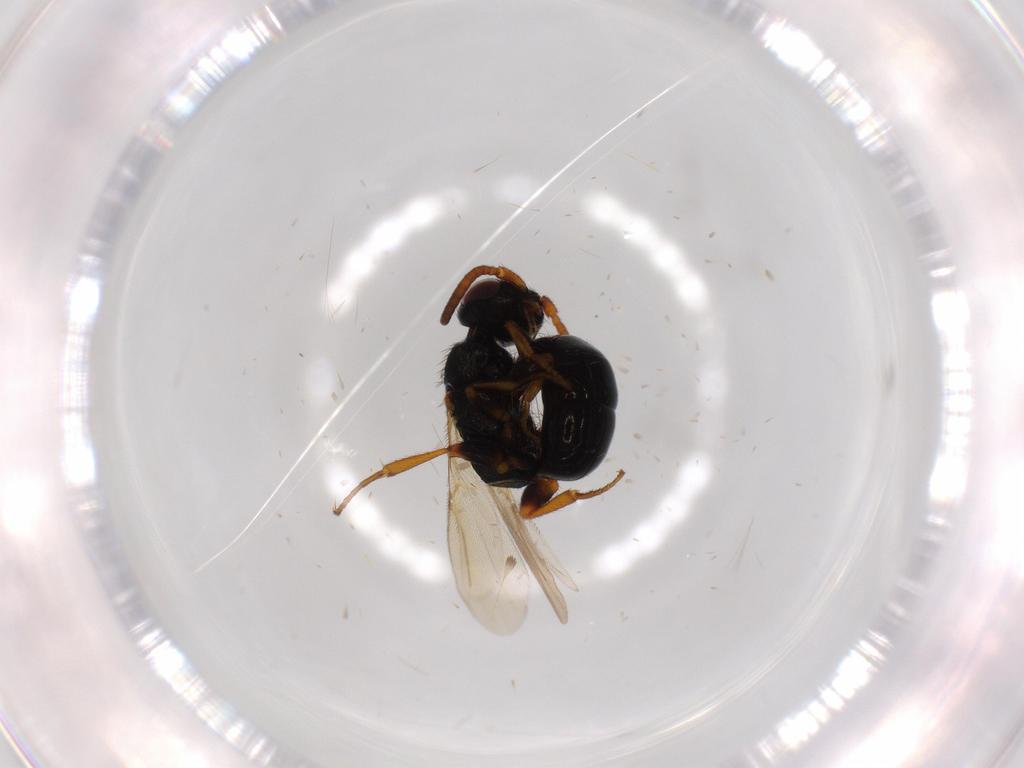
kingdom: Animalia
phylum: Arthropoda
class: Insecta
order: Hymenoptera
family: Bethylidae
